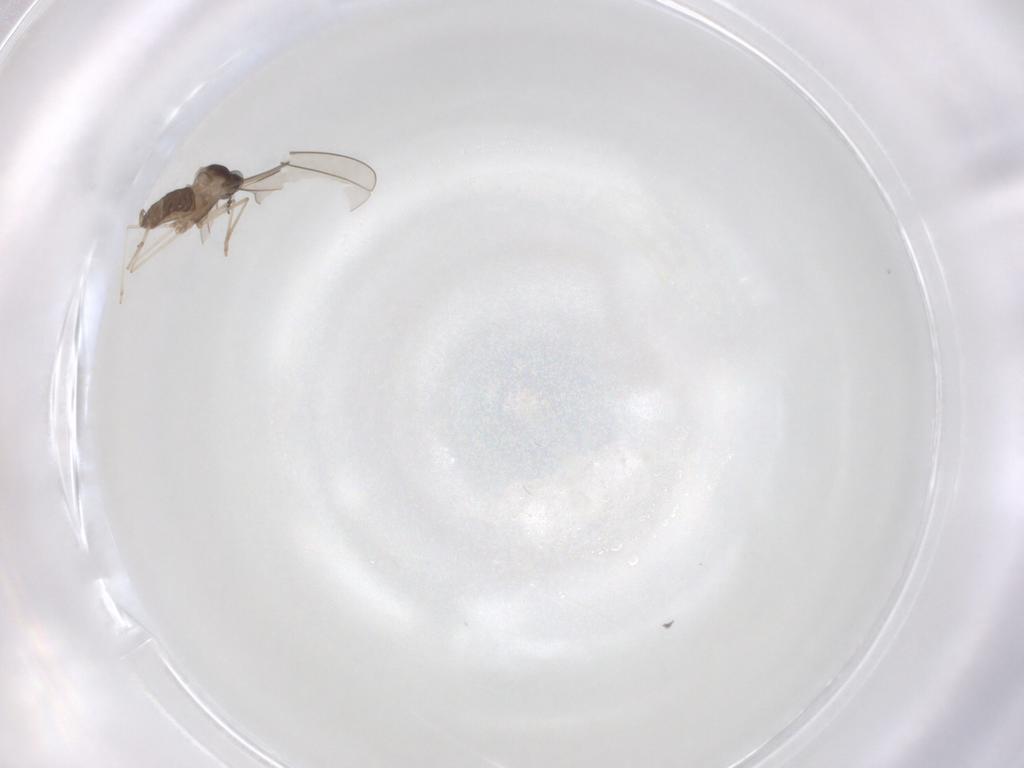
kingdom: Animalia
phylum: Arthropoda
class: Insecta
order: Diptera
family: Cecidomyiidae
